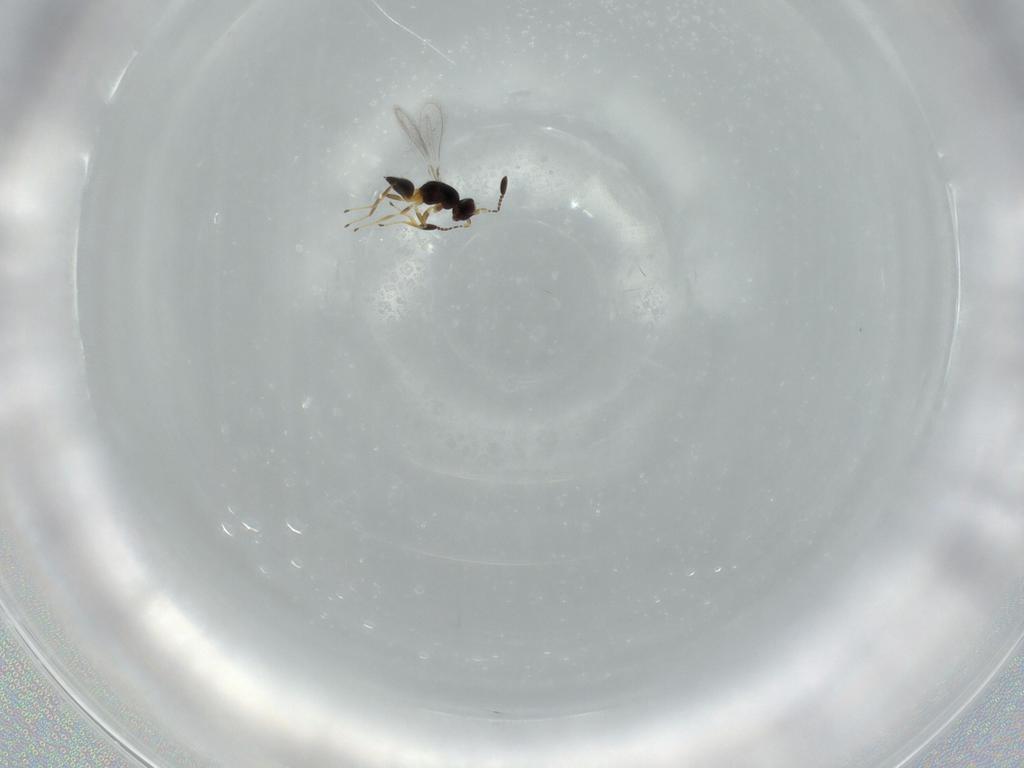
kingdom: Animalia
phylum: Arthropoda
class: Insecta
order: Hymenoptera
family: Mymaridae
